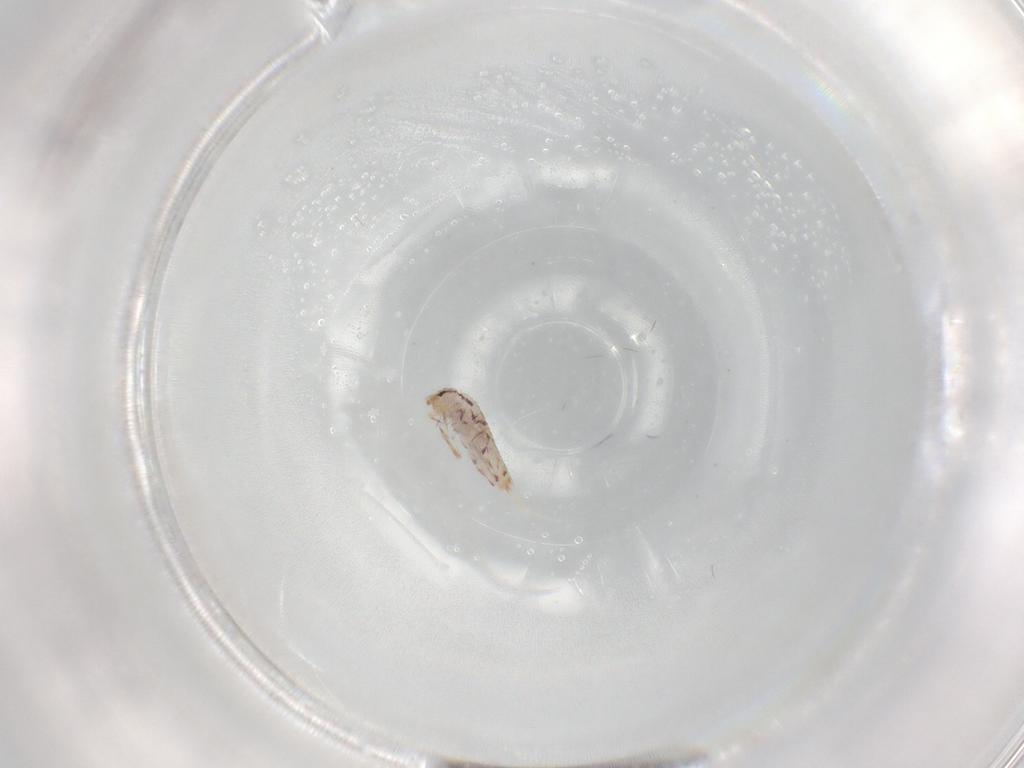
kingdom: Animalia
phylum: Arthropoda
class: Collembola
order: Entomobryomorpha
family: Entomobryidae
